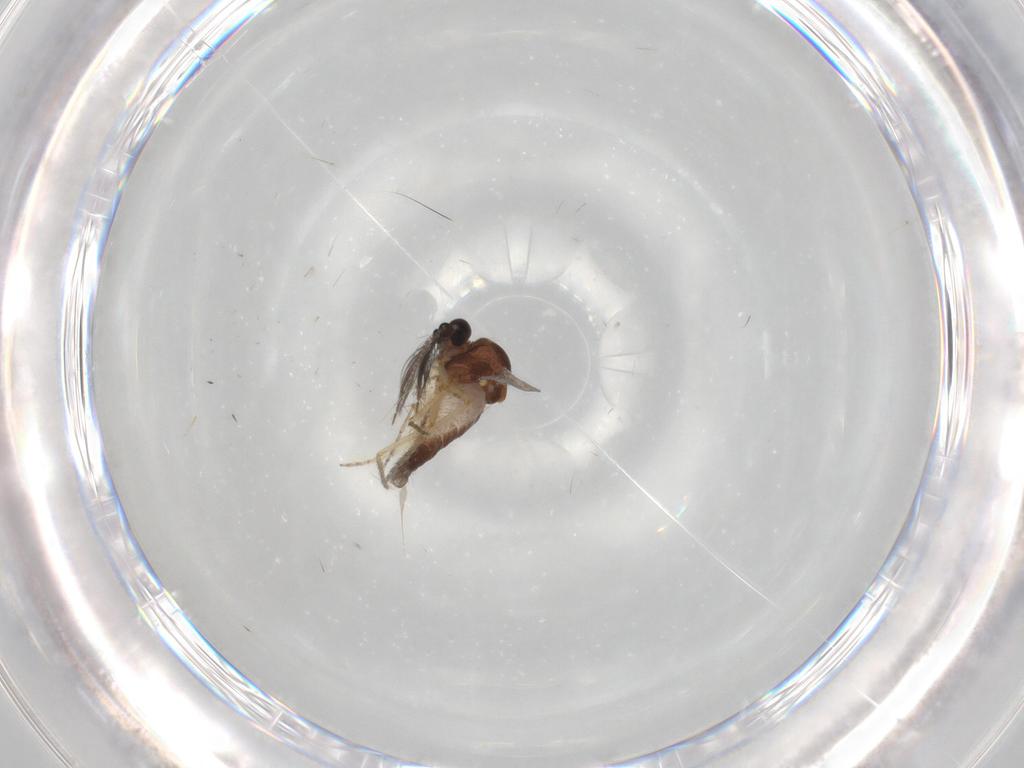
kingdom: Animalia
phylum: Arthropoda
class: Insecta
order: Diptera
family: Ceratopogonidae
